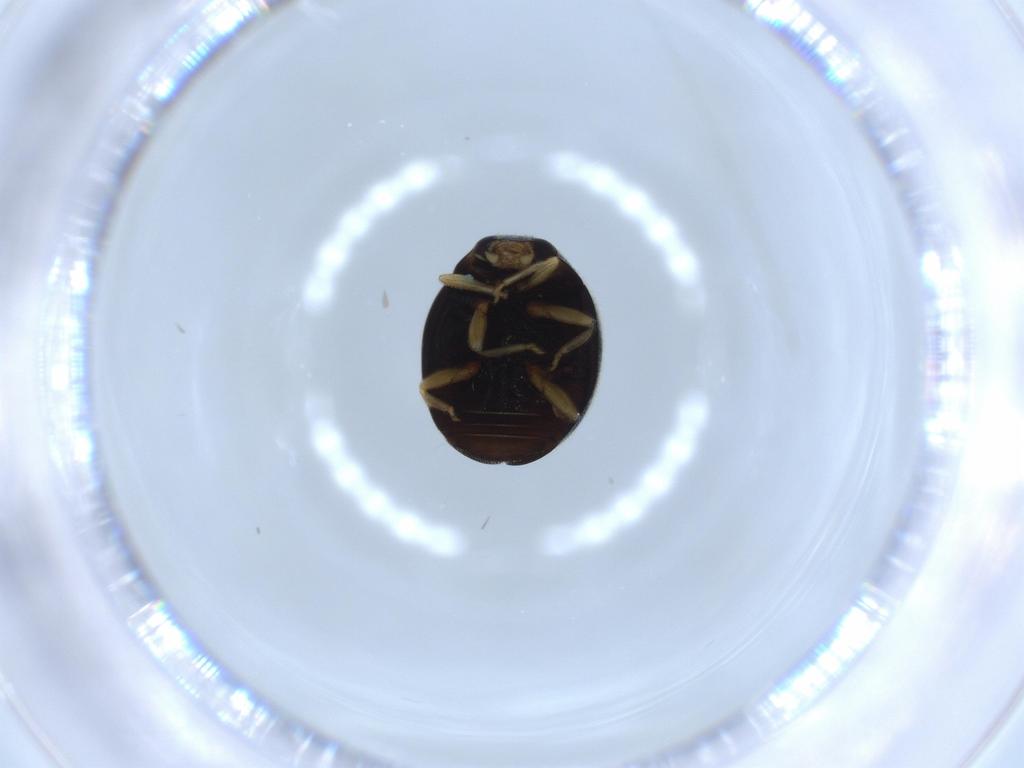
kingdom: Animalia
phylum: Arthropoda
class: Insecta
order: Coleoptera
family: Coccinellidae
